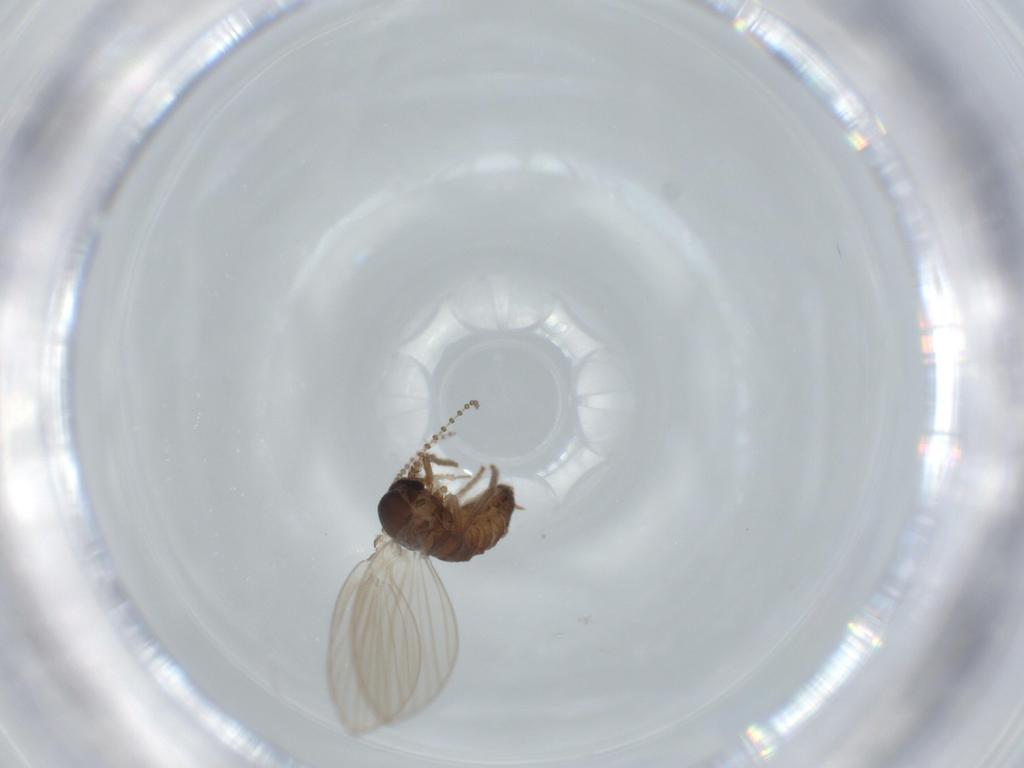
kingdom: Animalia
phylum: Arthropoda
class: Insecta
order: Diptera
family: Psychodidae
